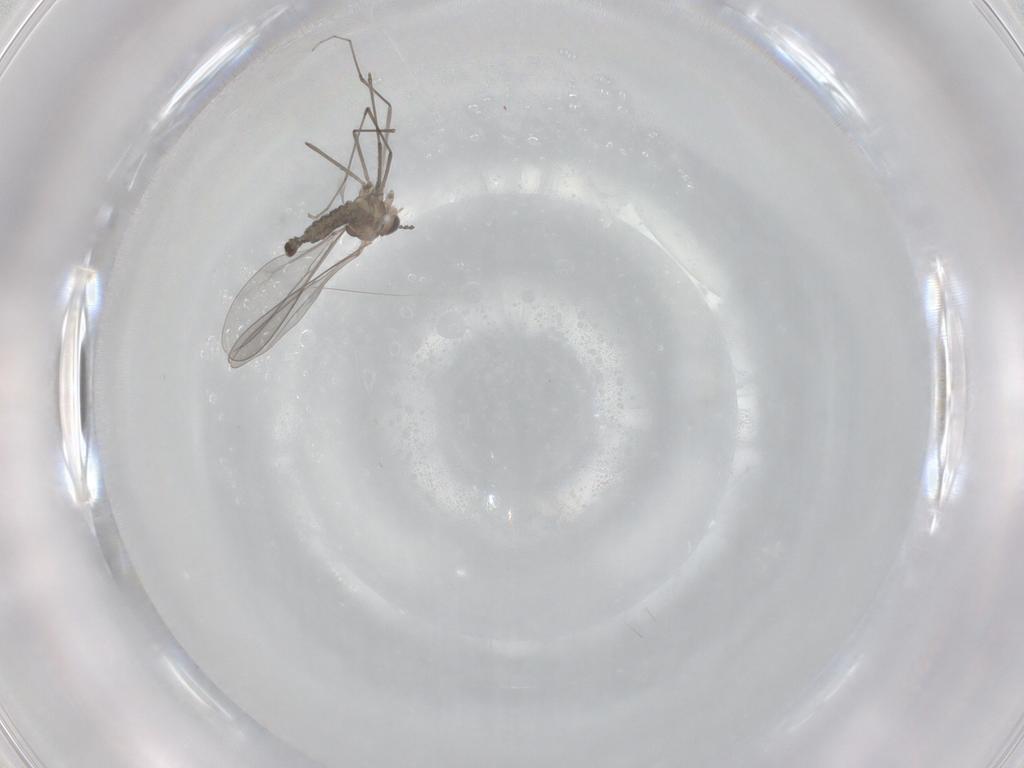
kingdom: Animalia
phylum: Arthropoda
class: Insecta
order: Diptera
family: Cecidomyiidae
